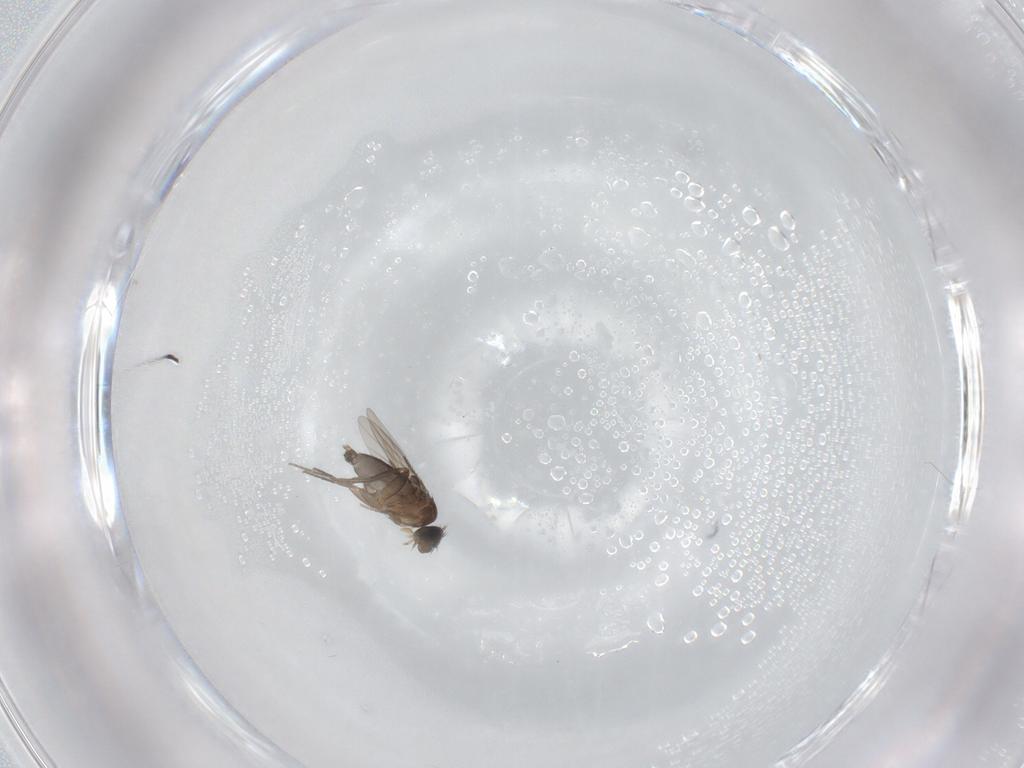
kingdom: Animalia
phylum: Arthropoda
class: Insecta
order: Diptera
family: Phoridae
